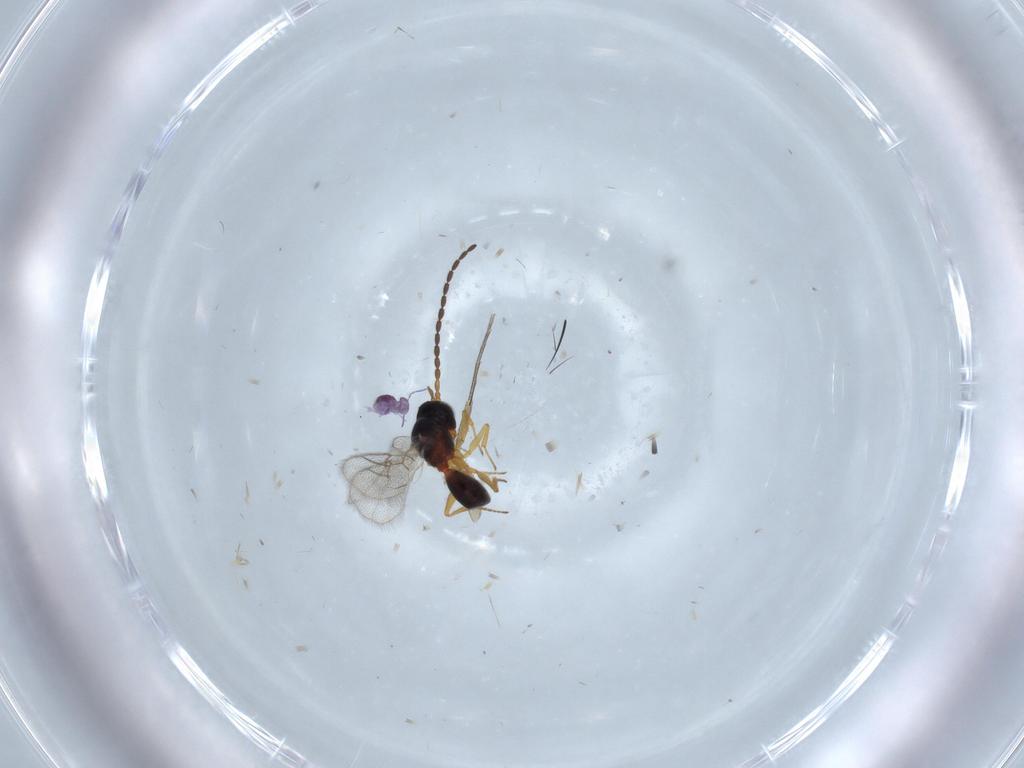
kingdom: Animalia
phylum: Arthropoda
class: Collembola
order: Symphypleona
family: Sminthurididae
